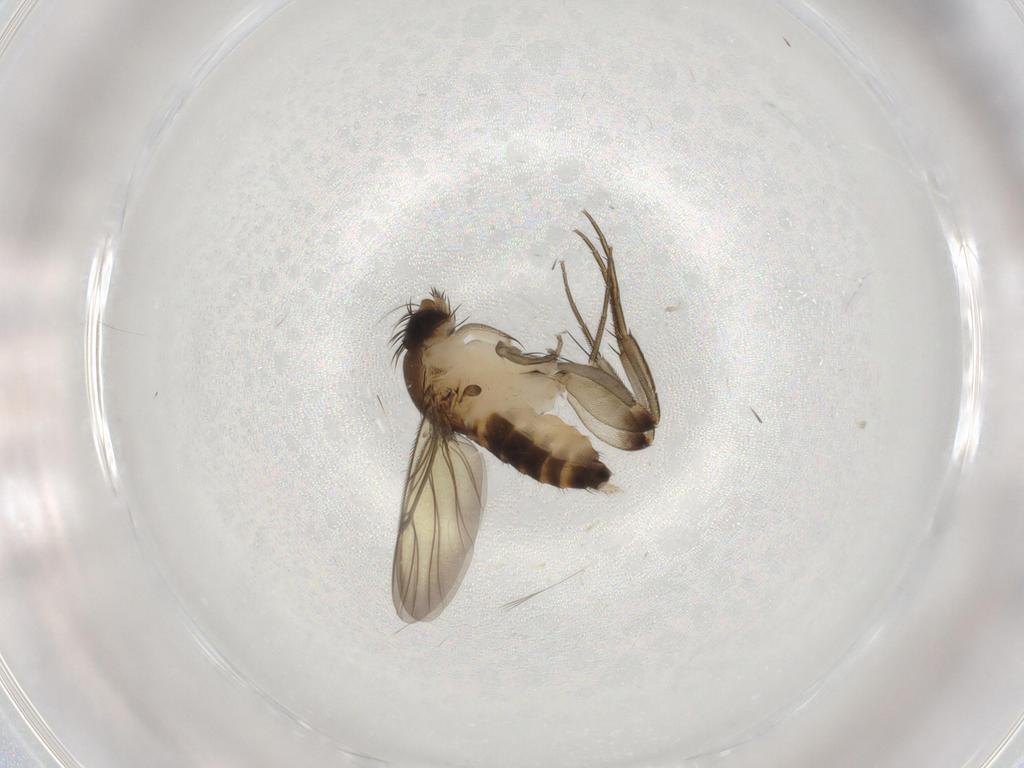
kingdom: Animalia
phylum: Arthropoda
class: Insecta
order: Diptera
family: Phoridae
